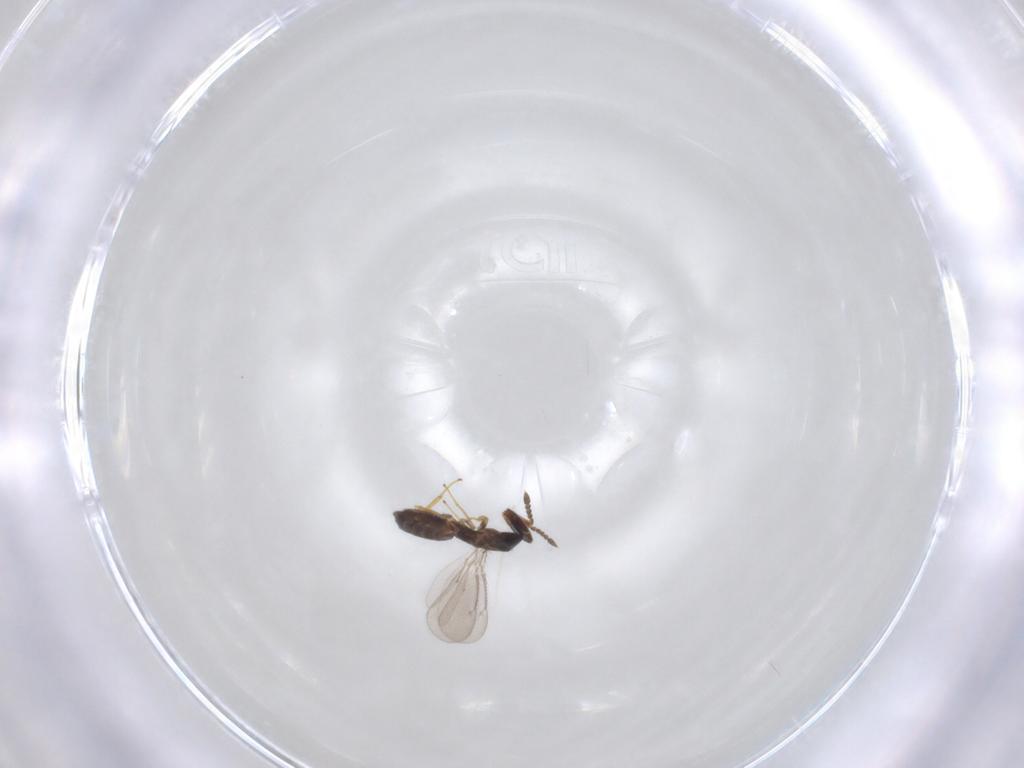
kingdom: Animalia
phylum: Arthropoda
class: Insecta
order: Hymenoptera
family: Eulophidae
